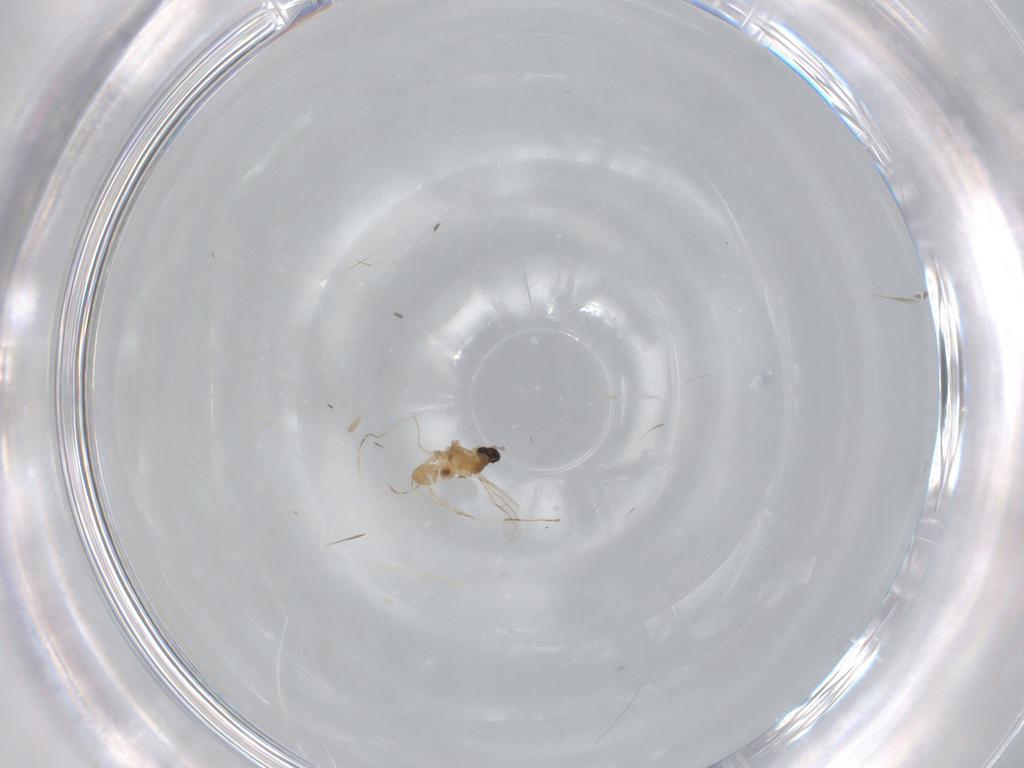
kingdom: Animalia
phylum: Arthropoda
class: Insecta
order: Diptera
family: Cecidomyiidae
